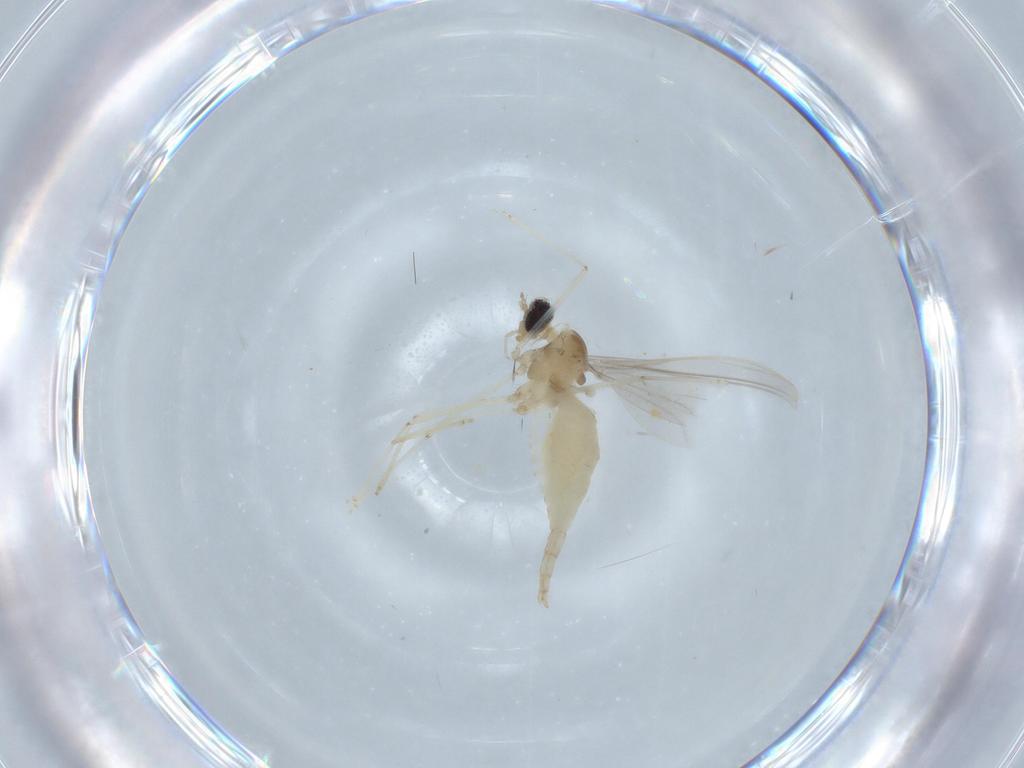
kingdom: Animalia
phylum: Arthropoda
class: Insecta
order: Diptera
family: Cecidomyiidae
